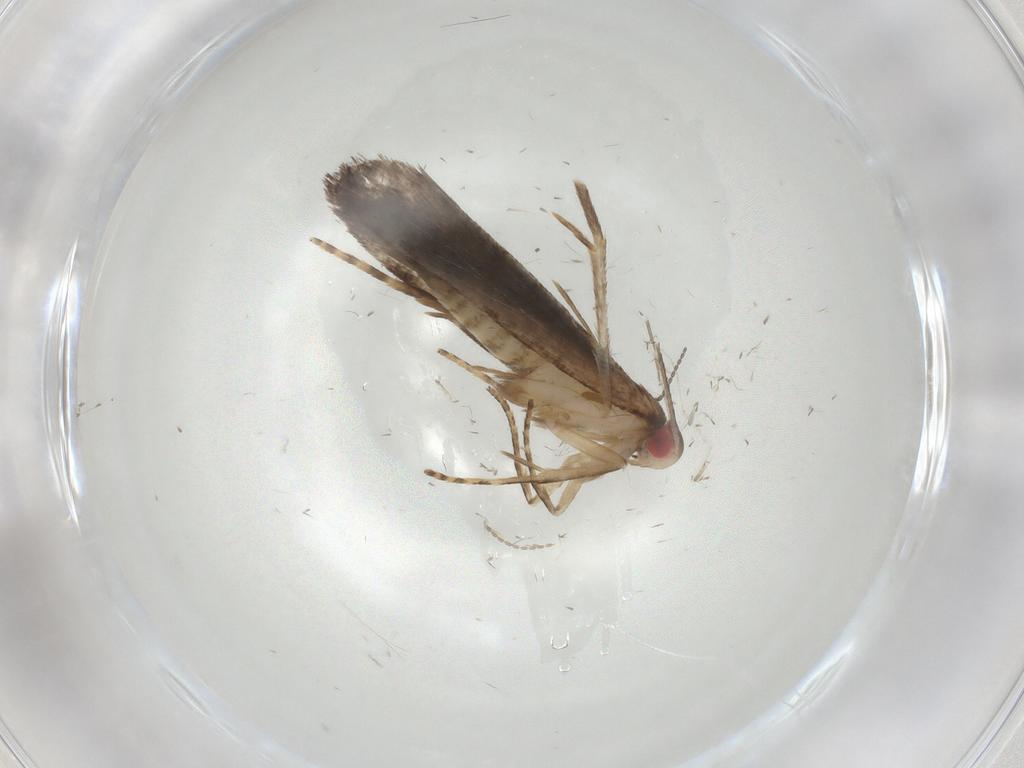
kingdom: Animalia
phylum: Arthropoda
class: Insecta
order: Lepidoptera
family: Gelechiidae
